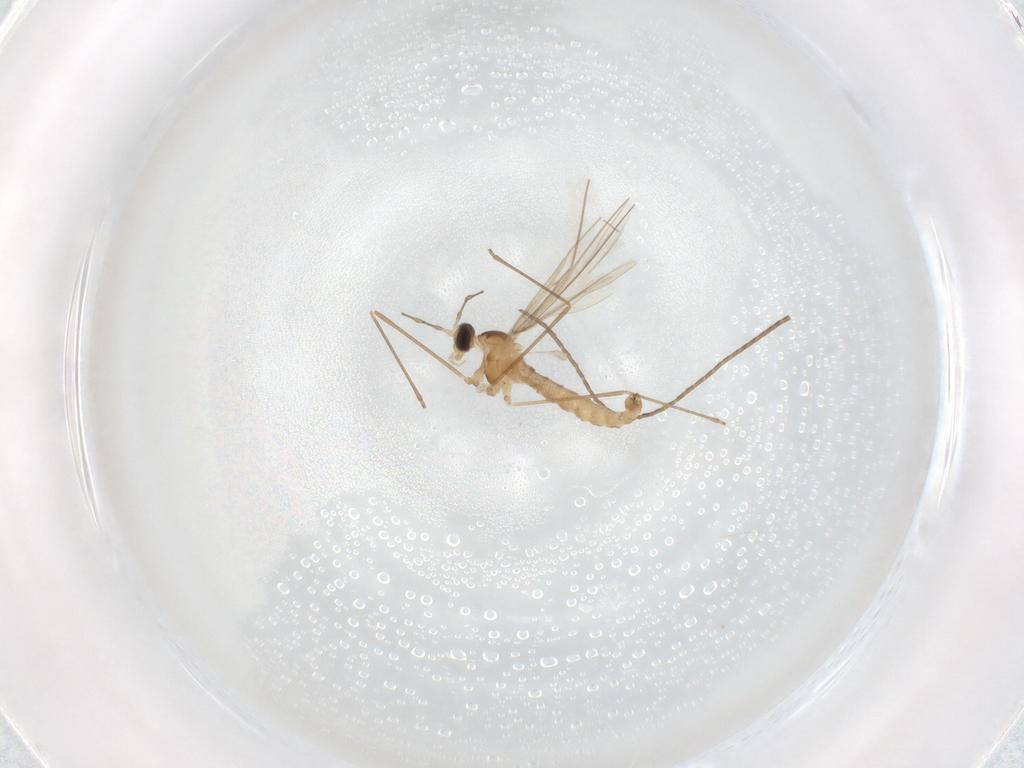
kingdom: Animalia
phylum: Arthropoda
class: Insecta
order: Diptera
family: Cecidomyiidae
